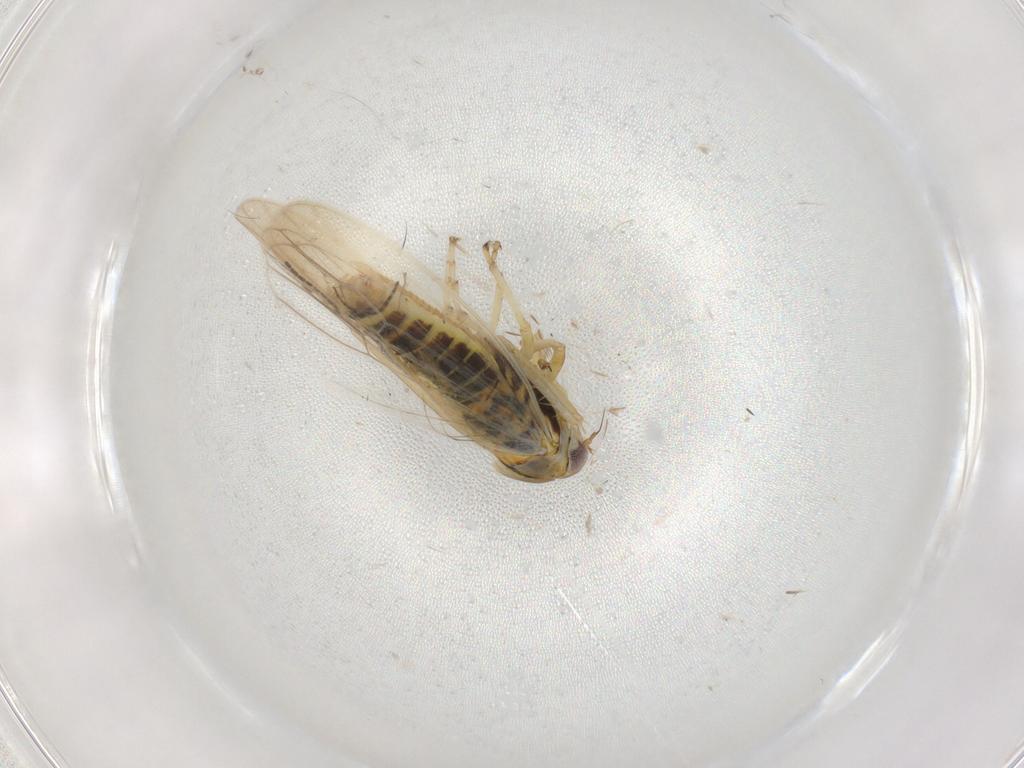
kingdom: Animalia
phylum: Arthropoda
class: Insecta
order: Hemiptera
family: Cicadellidae
